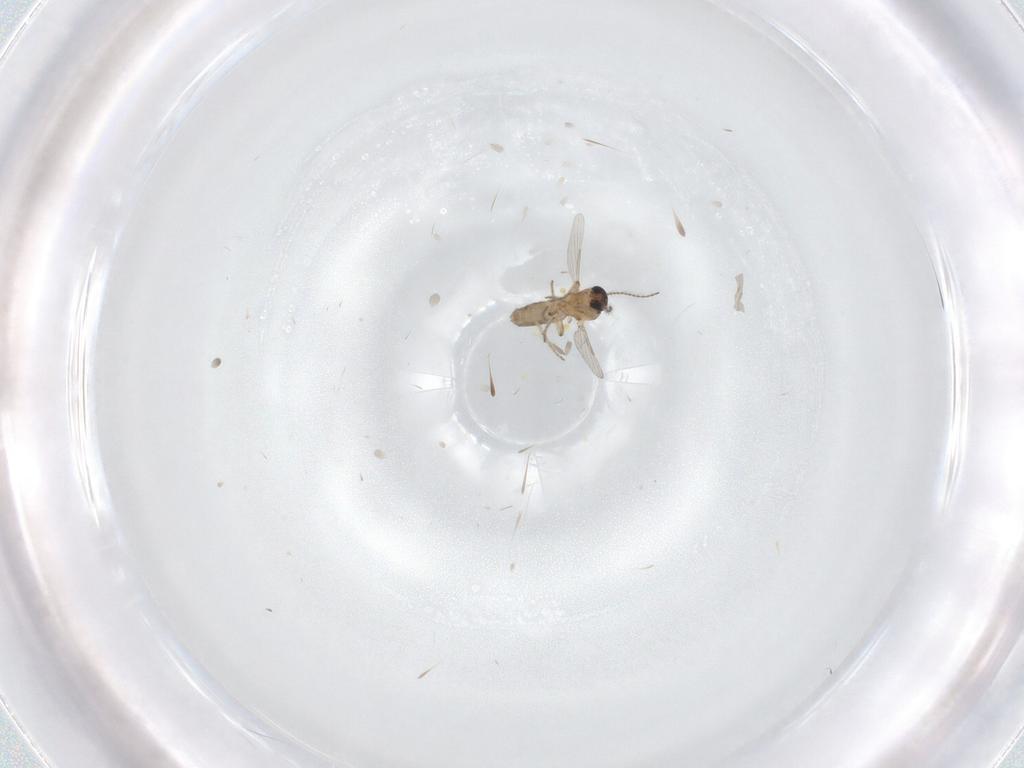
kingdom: Animalia
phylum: Arthropoda
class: Insecta
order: Diptera
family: Ceratopogonidae
